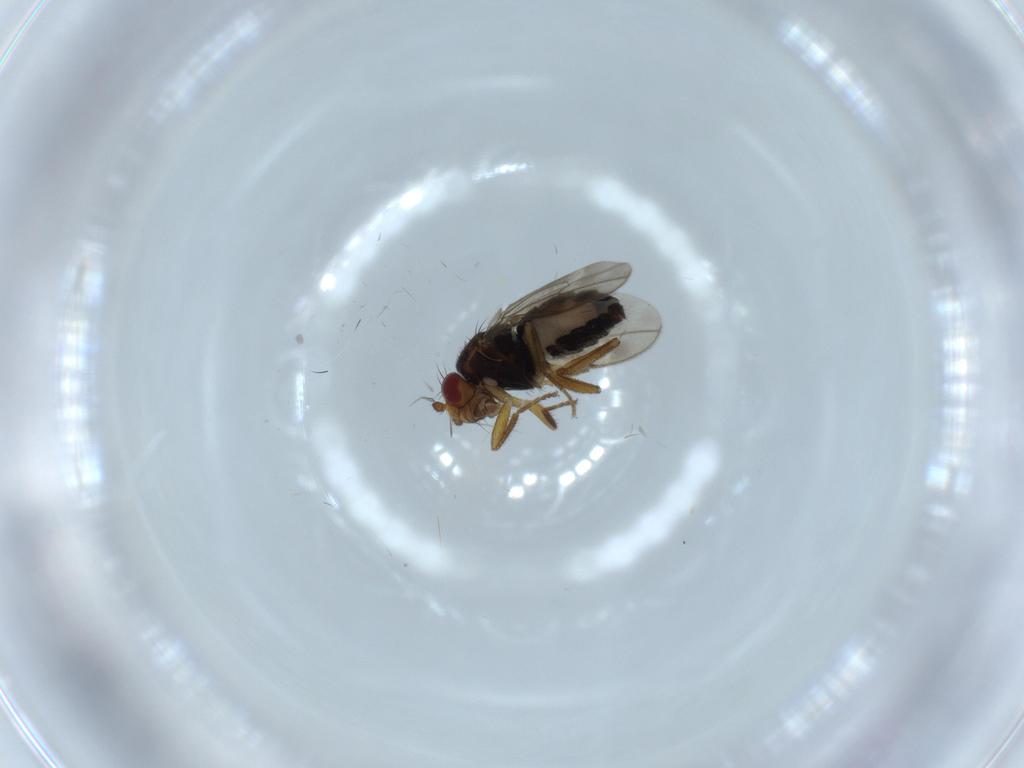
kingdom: Animalia
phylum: Arthropoda
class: Insecta
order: Diptera
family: Sphaeroceridae
